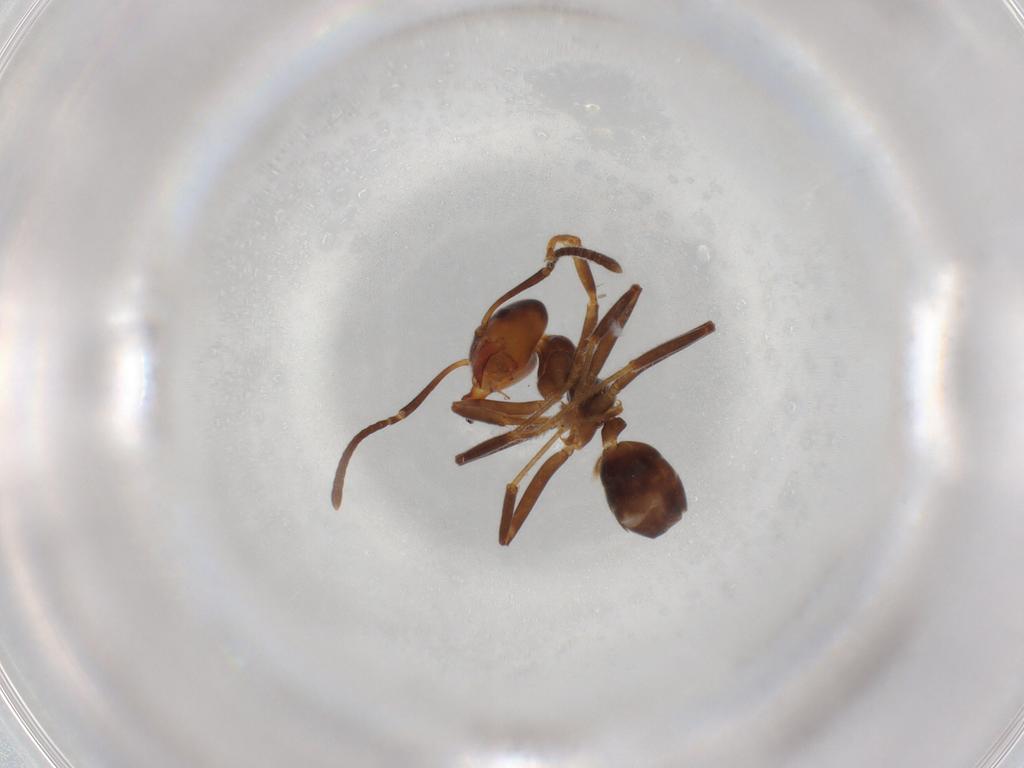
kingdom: Animalia
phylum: Arthropoda
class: Insecta
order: Hymenoptera
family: Formicidae
